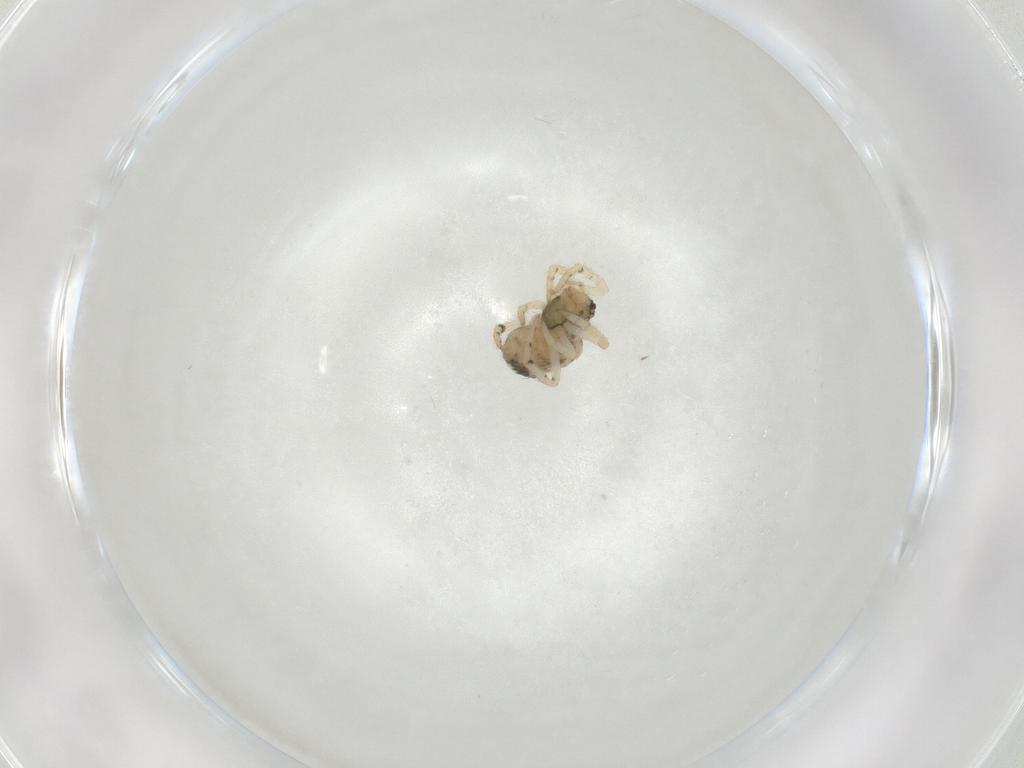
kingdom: Animalia
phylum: Arthropoda
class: Arachnida
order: Araneae
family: Theridiidae
